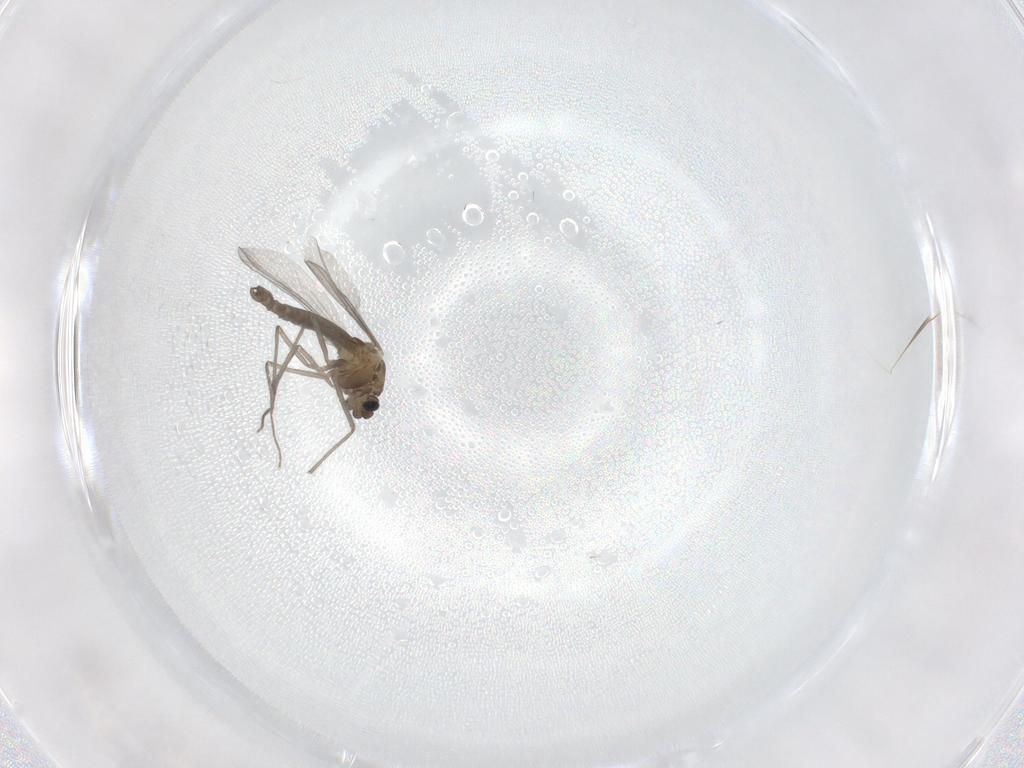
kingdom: Animalia
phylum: Arthropoda
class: Insecta
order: Diptera
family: Chironomidae
